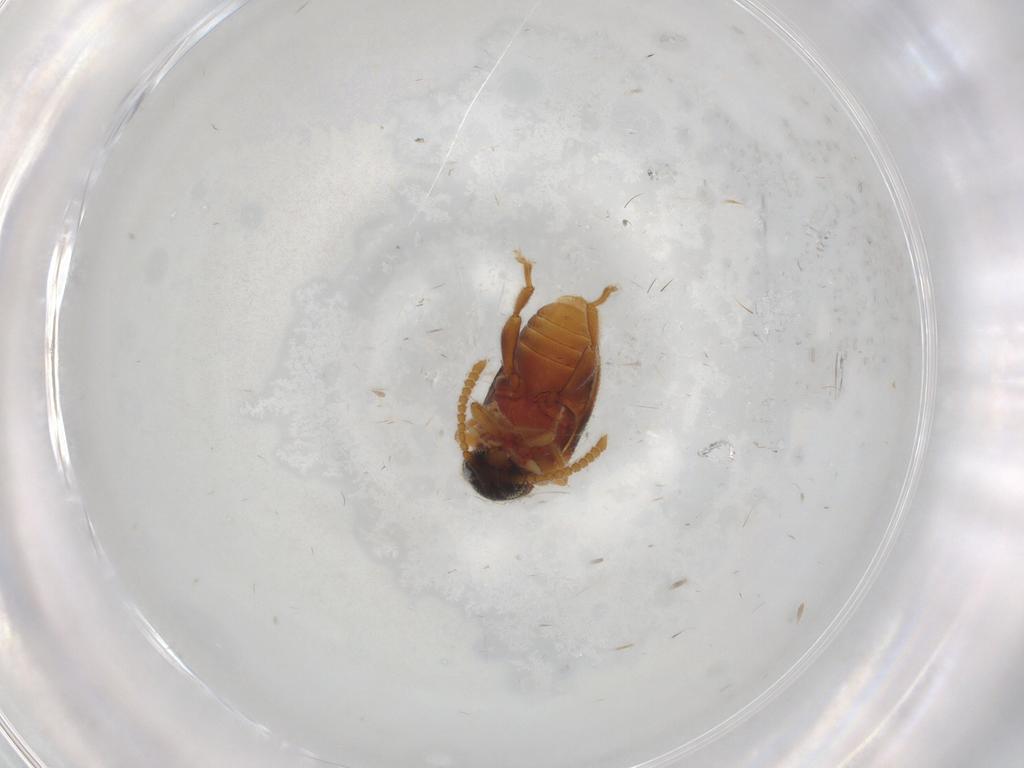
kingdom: Animalia
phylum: Arthropoda
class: Insecta
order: Coleoptera
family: Aderidae
